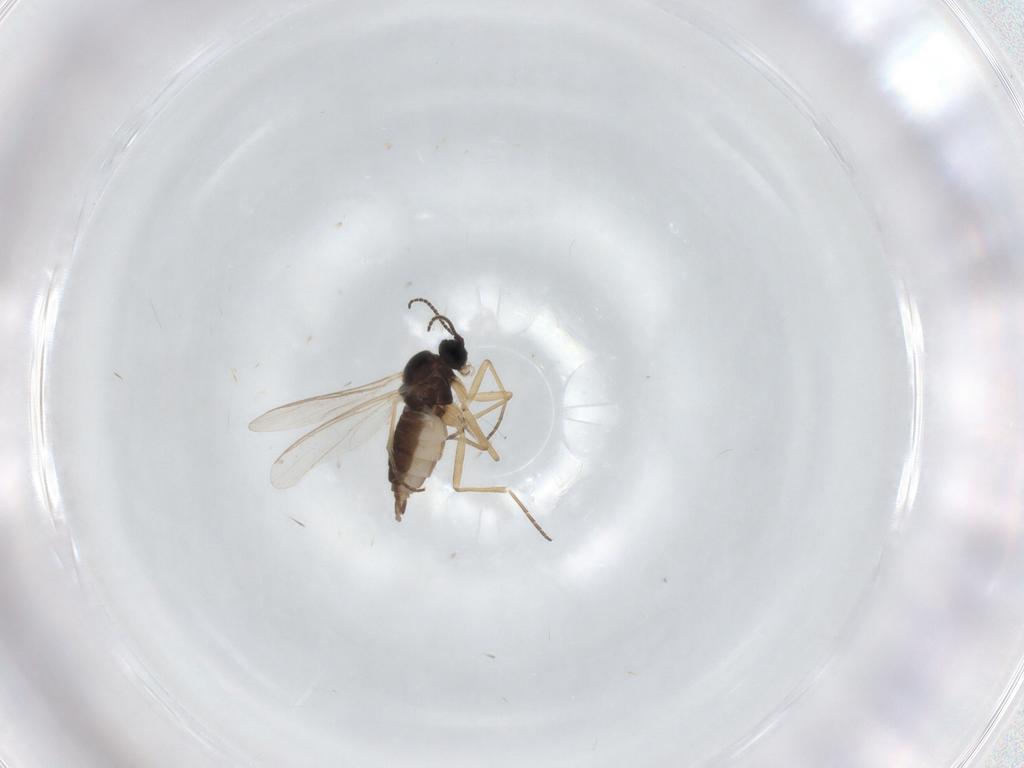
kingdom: Animalia
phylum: Arthropoda
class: Insecta
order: Diptera
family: Sciaridae
